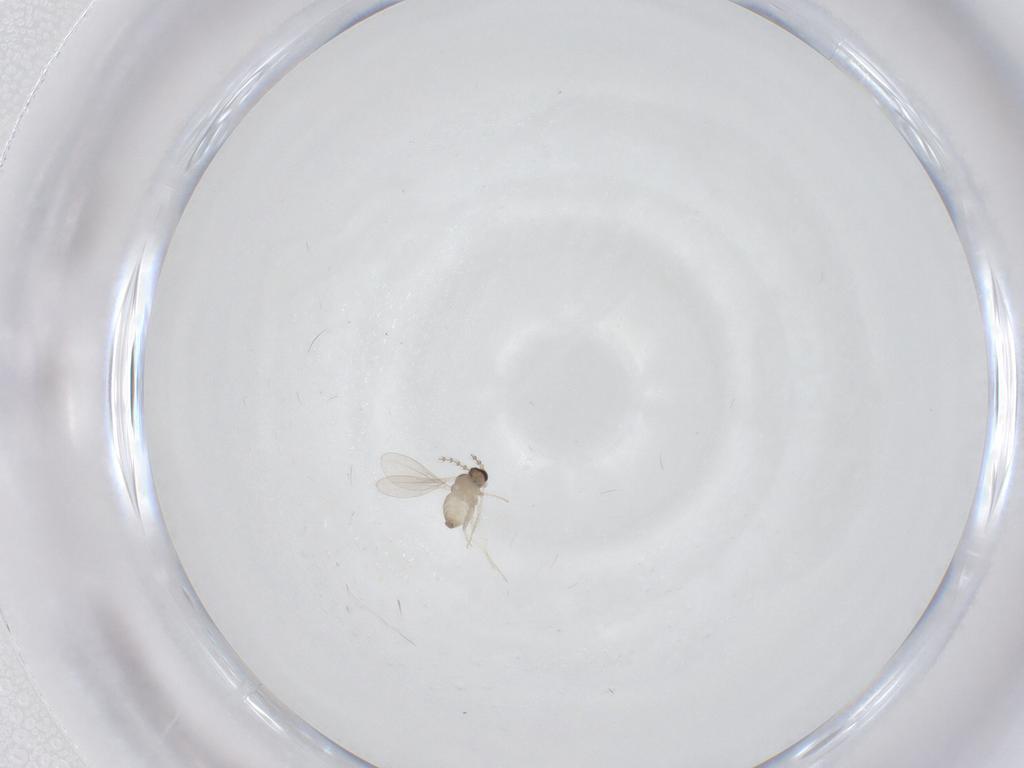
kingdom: Animalia
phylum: Arthropoda
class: Insecta
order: Diptera
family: Cecidomyiidae
